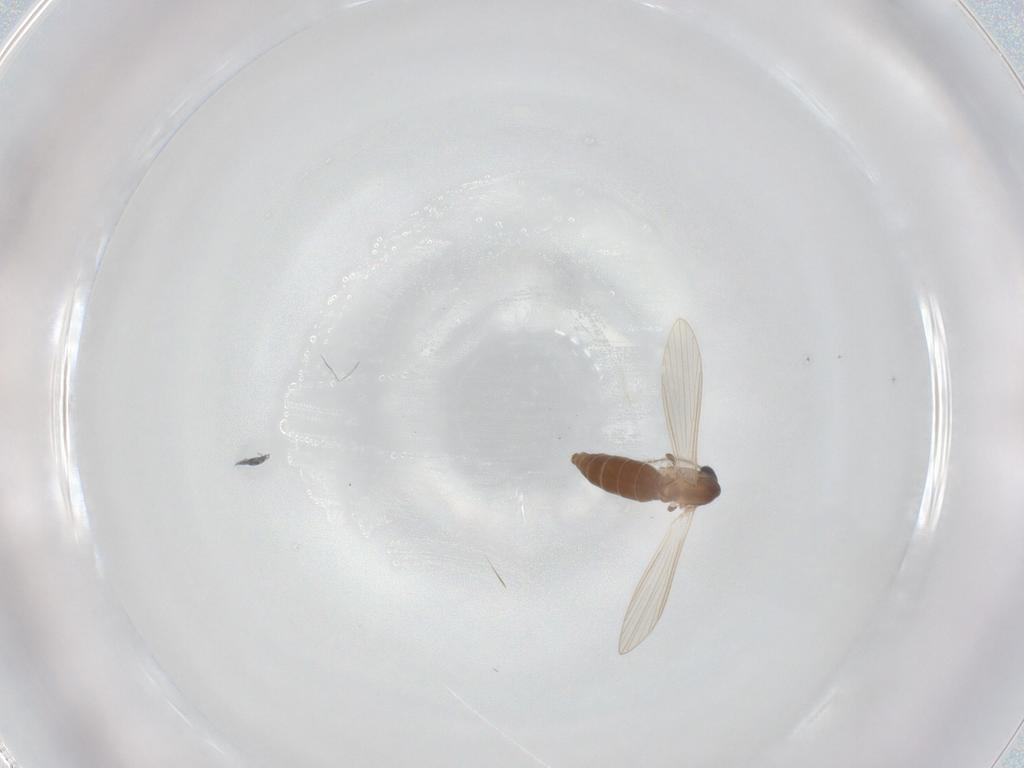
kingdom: Animalia
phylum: Arthropoda
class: Insecta
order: Diptera
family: Psychodidae
